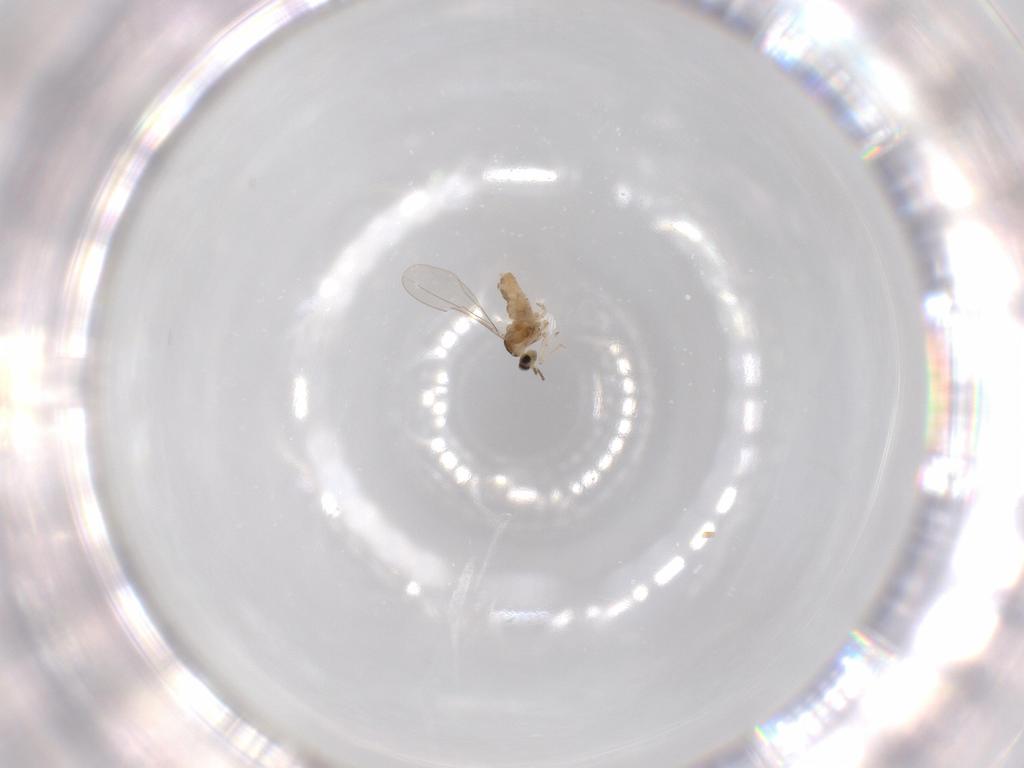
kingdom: Animalia
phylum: Arthropoda
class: Insecta
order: Diptera
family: Cecidomyiidae
